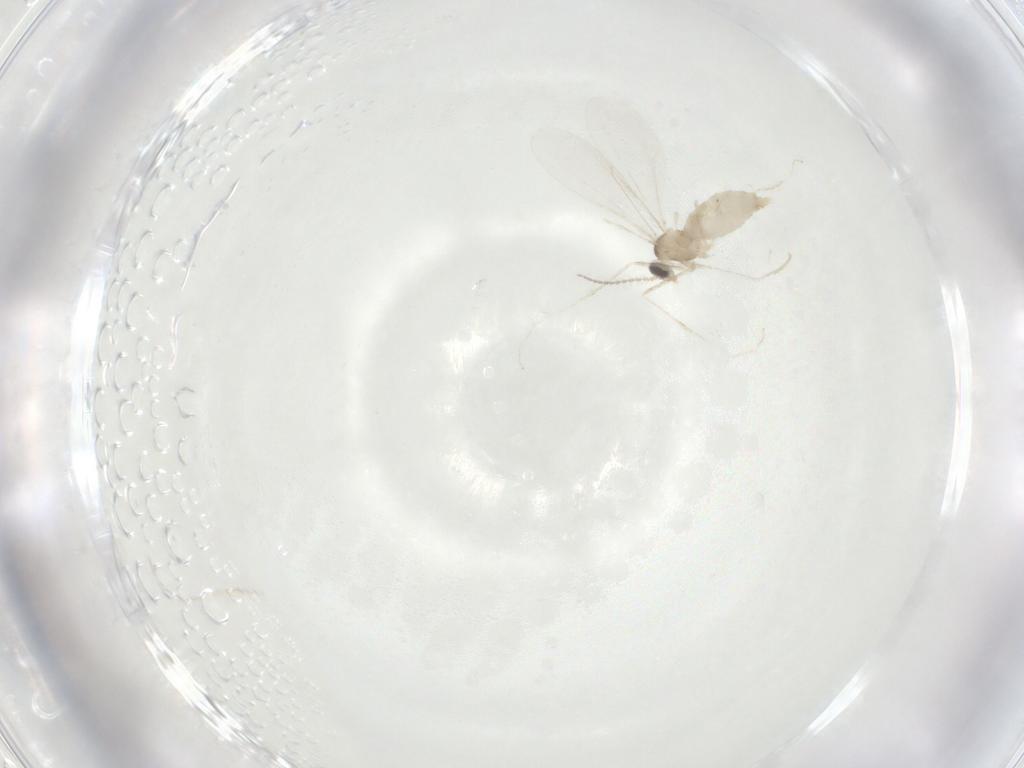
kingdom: Animalia
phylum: Arthropoda
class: Insecta
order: Diptera
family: Cecidomyiidae
